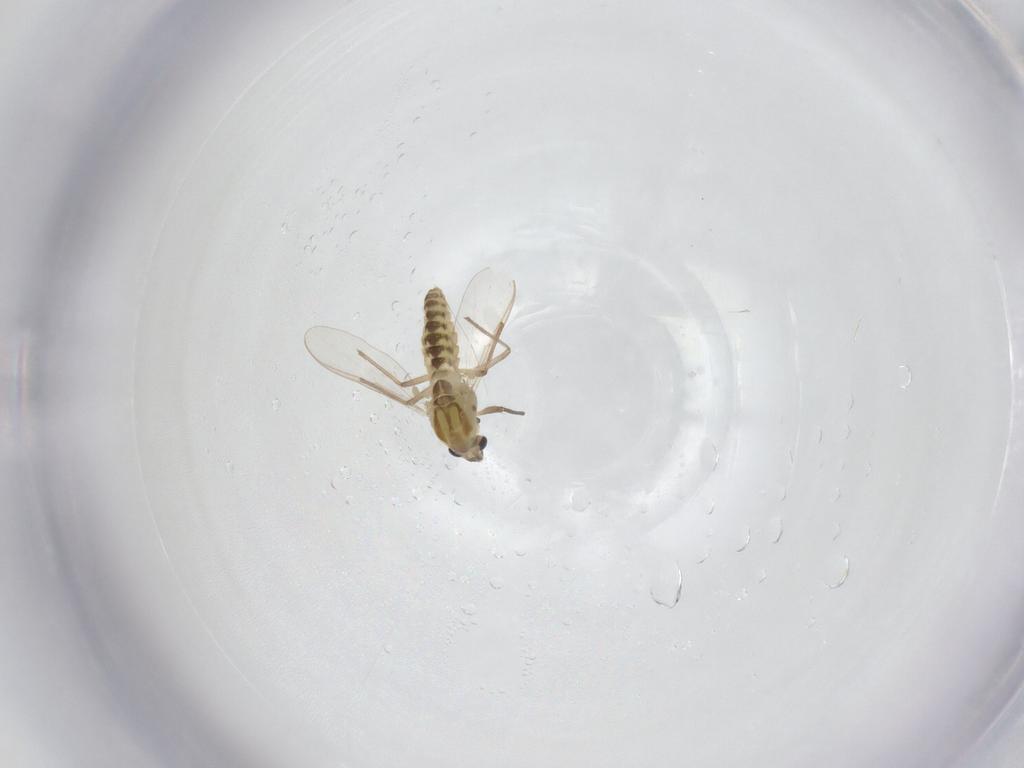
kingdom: Animalia
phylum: Arthropoda
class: Insecta
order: Diptera
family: Chironomidae
